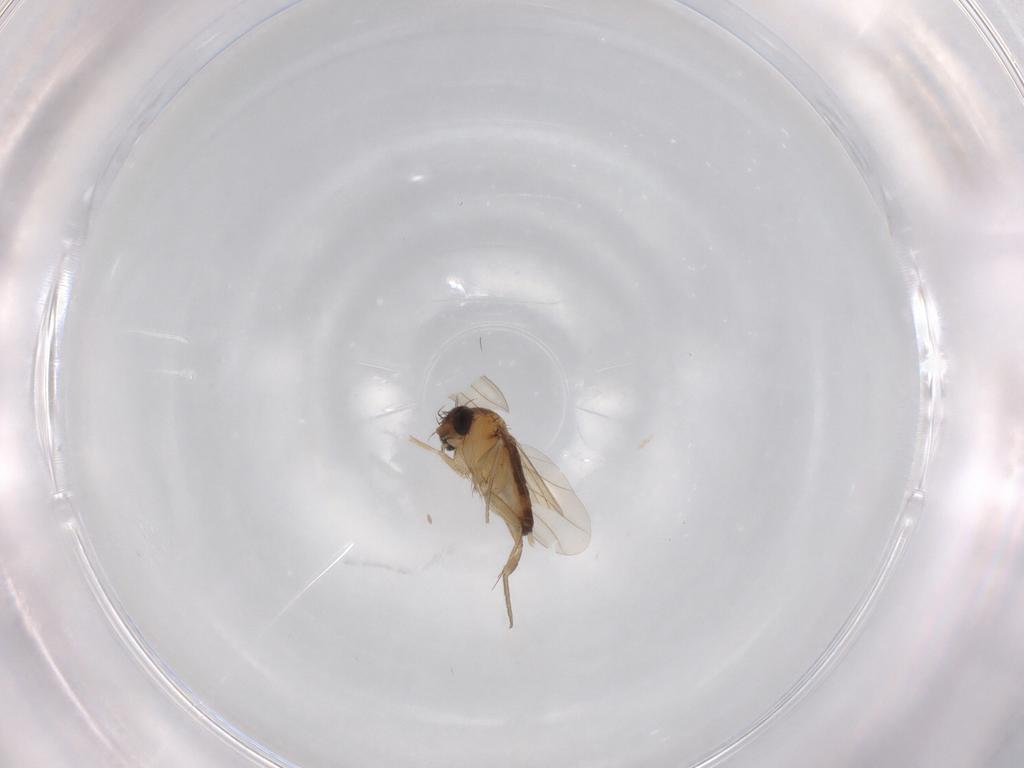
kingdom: Animalia
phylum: Arthropoda
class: Insecta
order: Diptera
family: Phoridae
